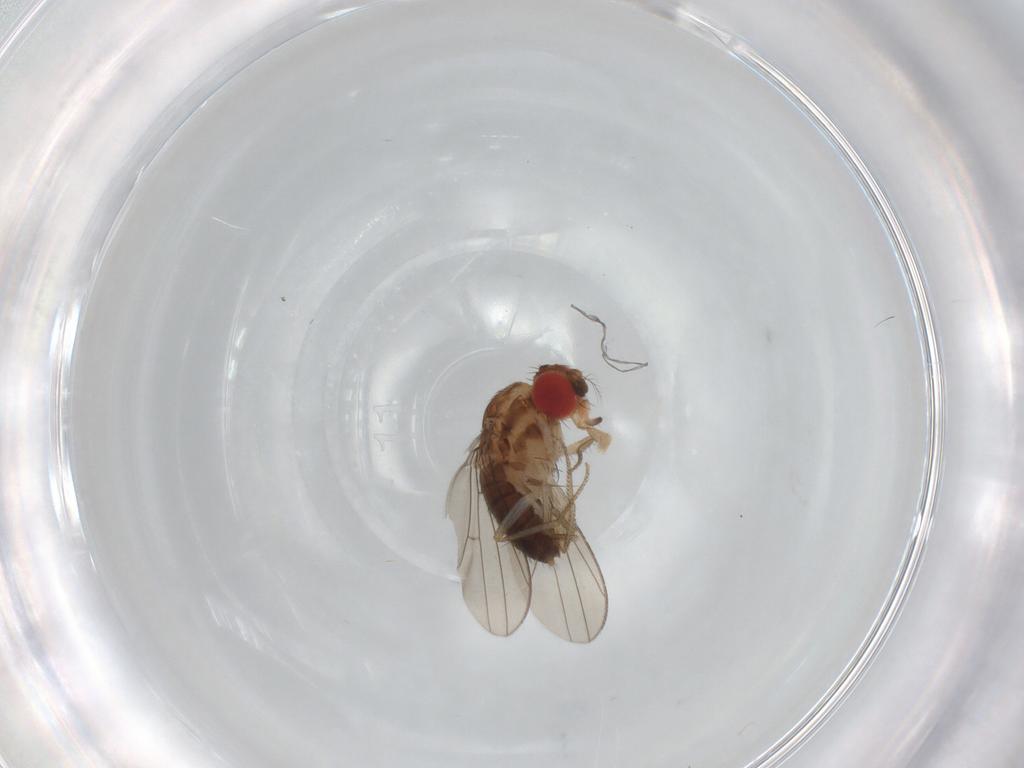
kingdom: Animalia
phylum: Arthropoda
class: Insecta
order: Diptera
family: Drosophilidae
